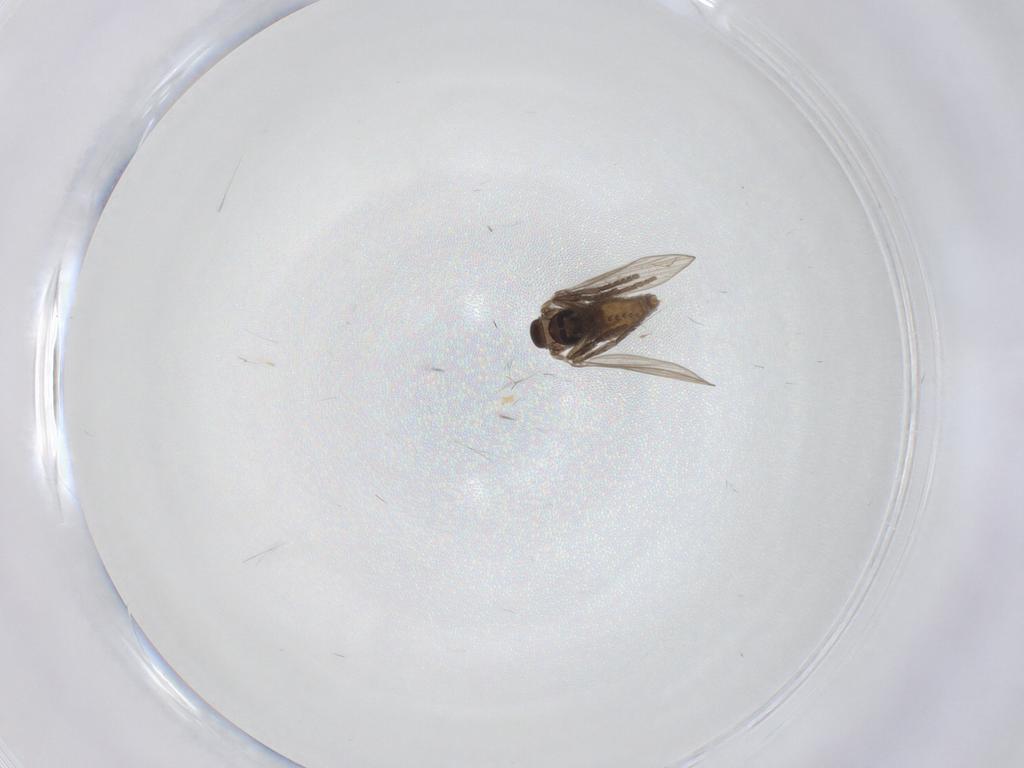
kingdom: Animalia
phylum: Arthropoda
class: Insecta
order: Diptera
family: Psychodidae
